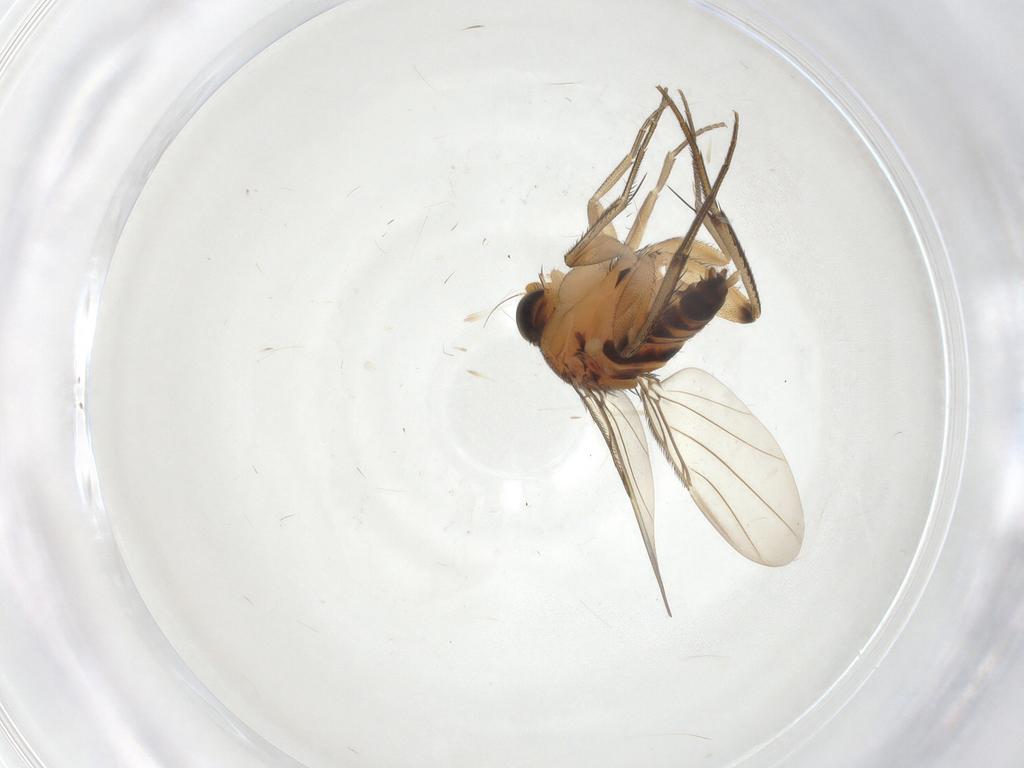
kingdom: Animalia
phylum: Arthropoda
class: Insecta
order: Diptera
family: Phoridae
